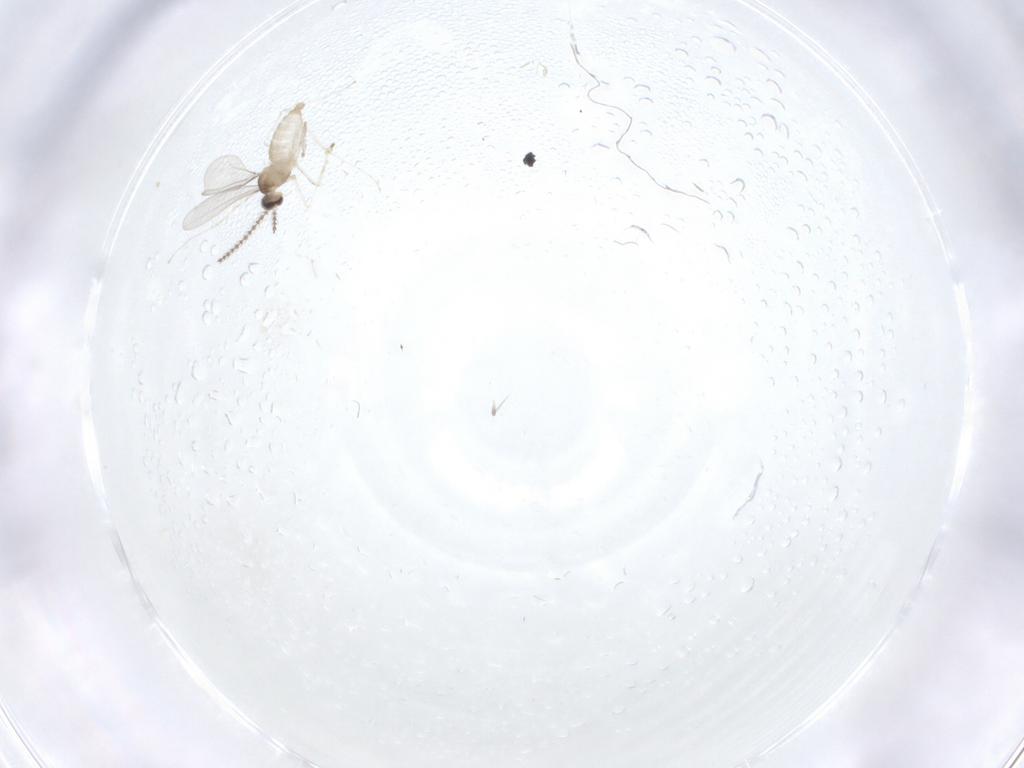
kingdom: Animalia
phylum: Arthropoda
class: Insecta
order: Diptera
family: Cecidomyiidae
